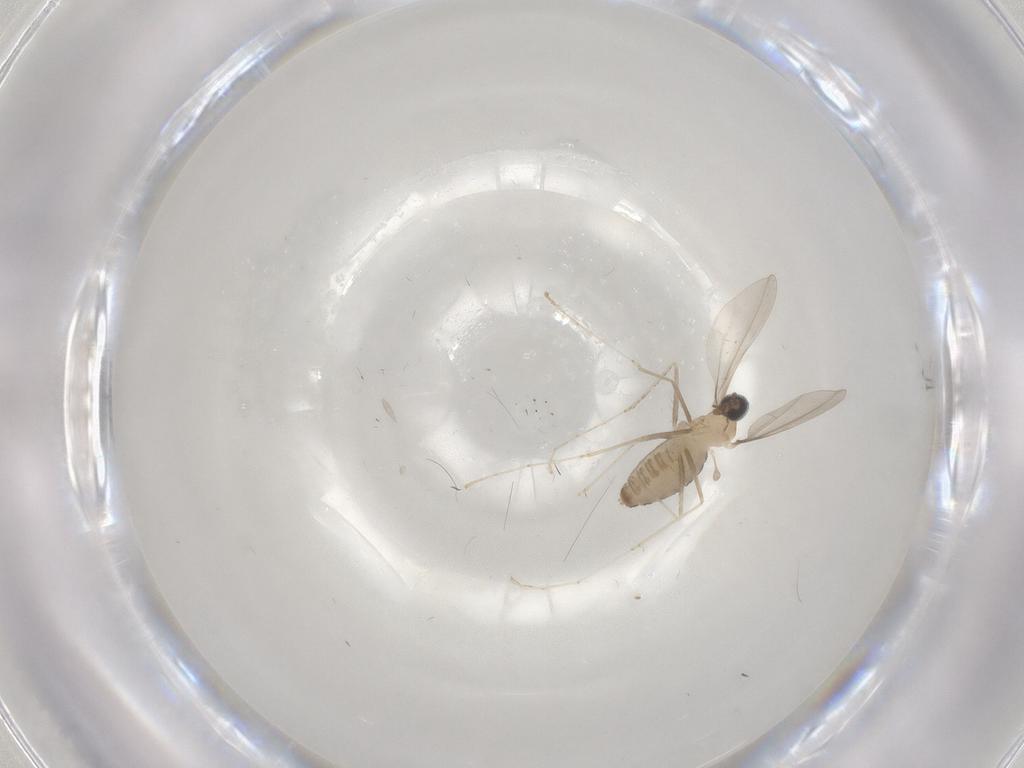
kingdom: Animalia
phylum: Arthropoda
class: Insecta
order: Diptera
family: Cecidomyiidae
